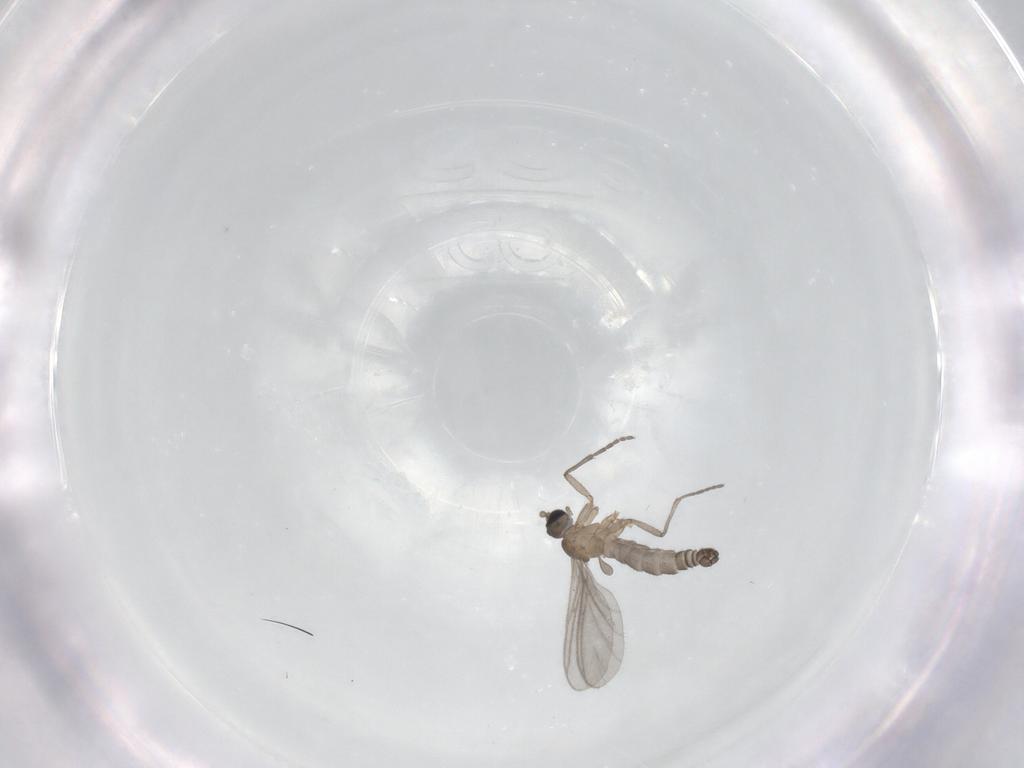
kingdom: Animalia
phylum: Arthropoda
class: Insecta
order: Diptera
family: Sciaridae
